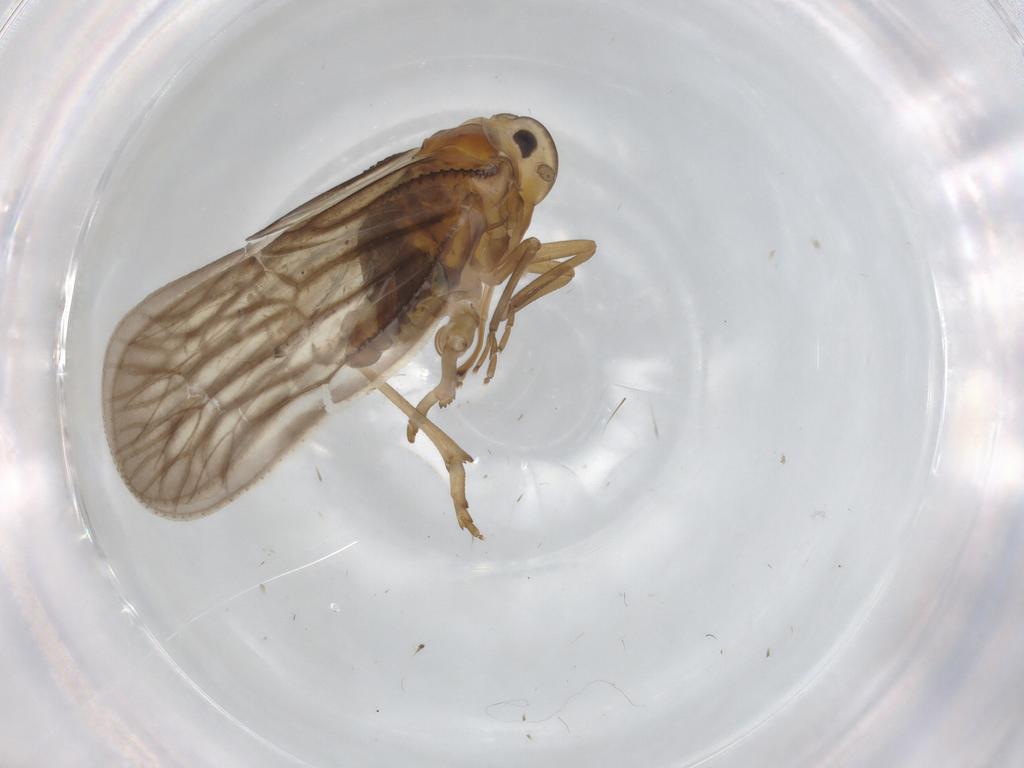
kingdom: Animalia
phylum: Arthropoda
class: Insecta
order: Hemiptera
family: Meenoplidae
